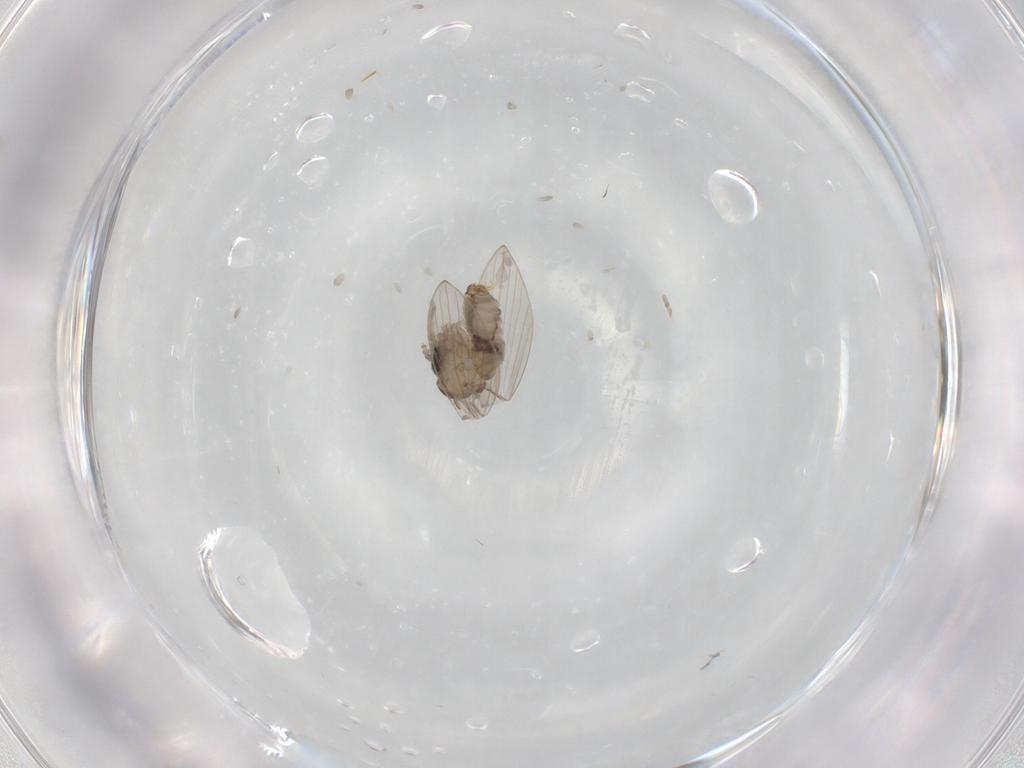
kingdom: Animalia
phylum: Arthropoda
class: Insecta
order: Diptera
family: Psychodidae
